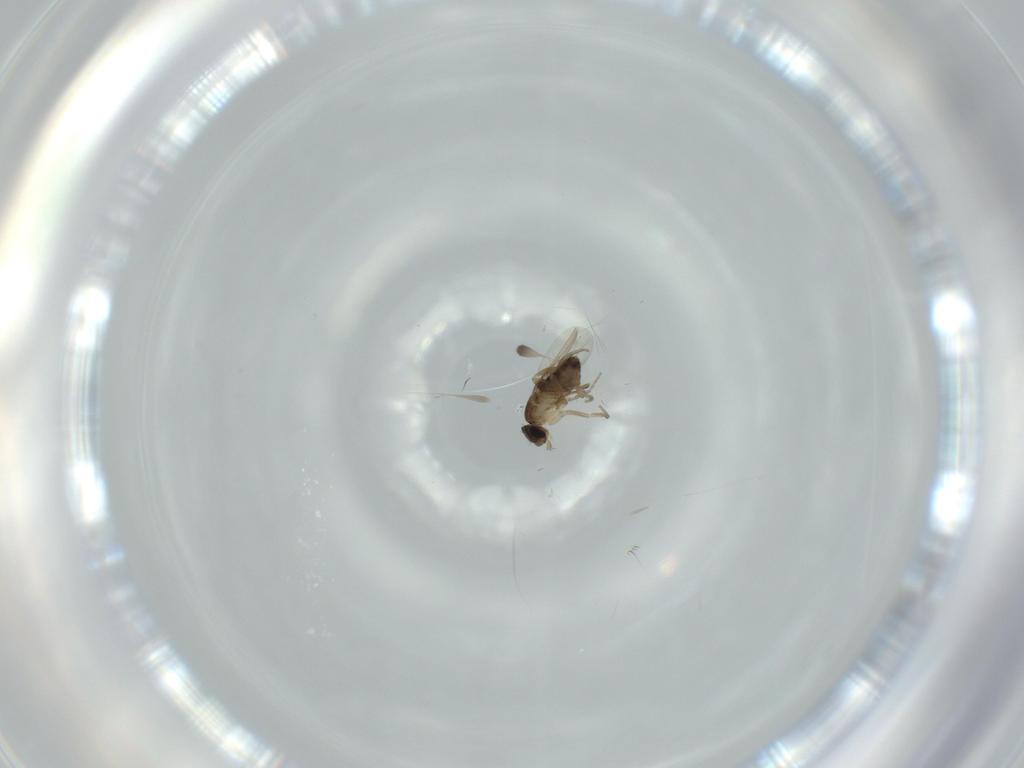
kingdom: Animalia
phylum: Arthropoda
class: Insecta
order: Diptera
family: Phoridae
